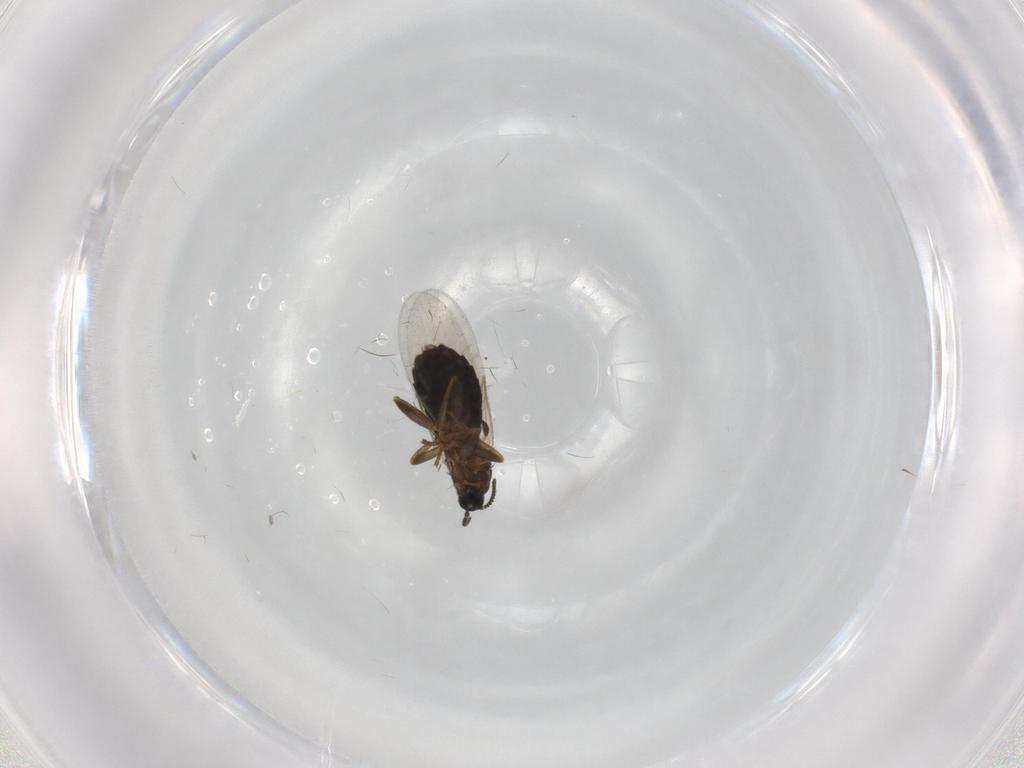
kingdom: Animalia
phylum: Arthropoda
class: Insecta
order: Diptera
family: Scatopsidae
